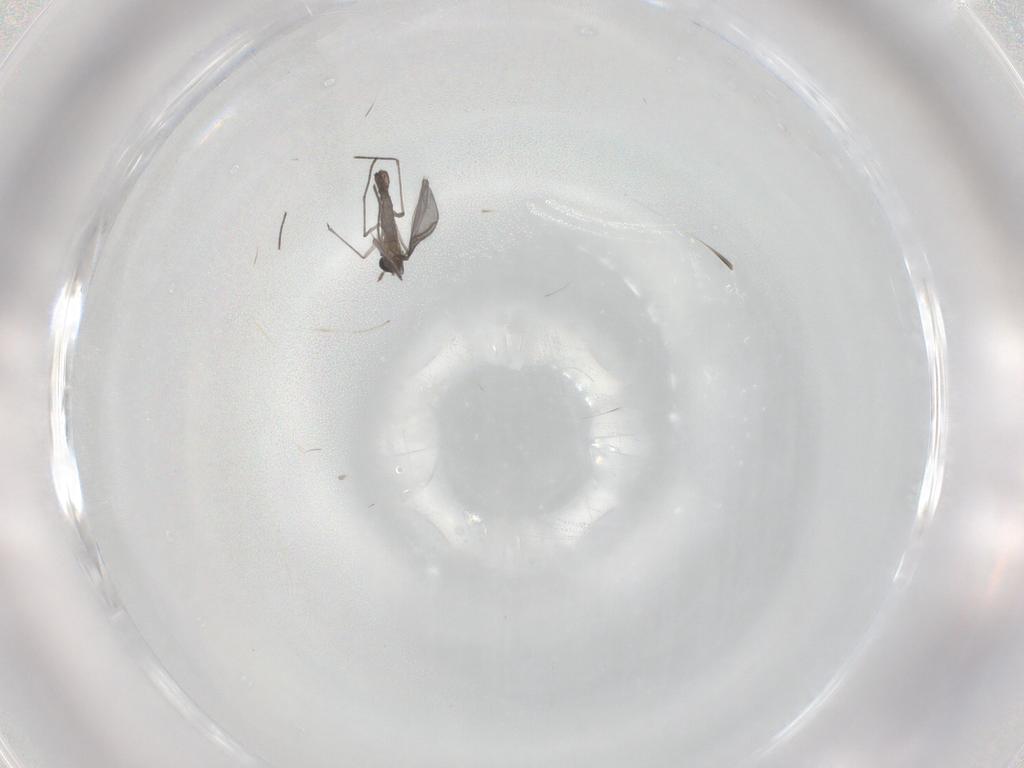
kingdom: Animalia
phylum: Arthropoda
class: Insecta
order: Diptera
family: Sciaridae
